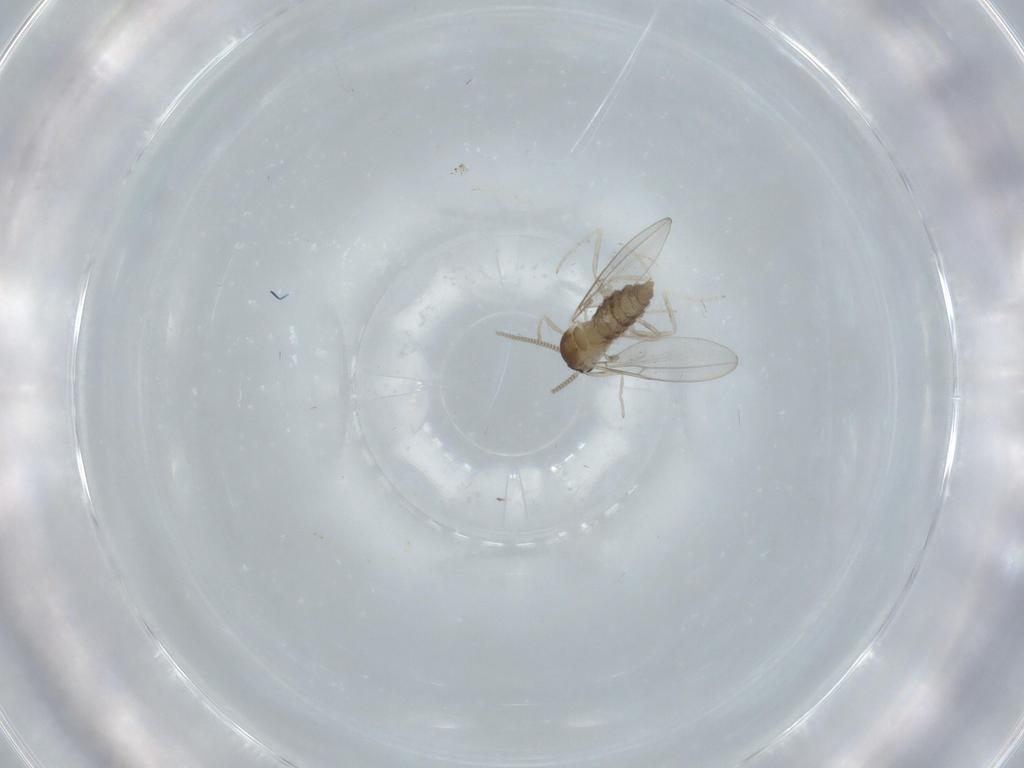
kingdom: Animalia
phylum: Arthropoda
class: Insecta
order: Diptera
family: Cecidomyiidae
